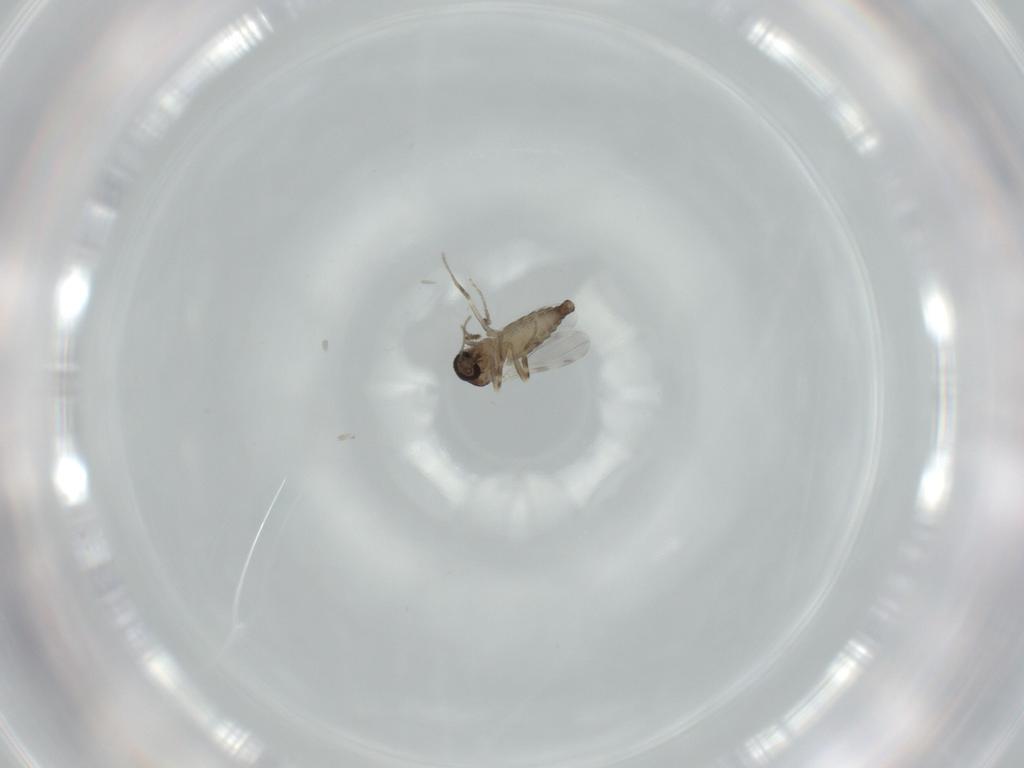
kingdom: Animalia
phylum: Arthropoda
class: Insecta
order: Diptera
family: Ceratopogonidae
